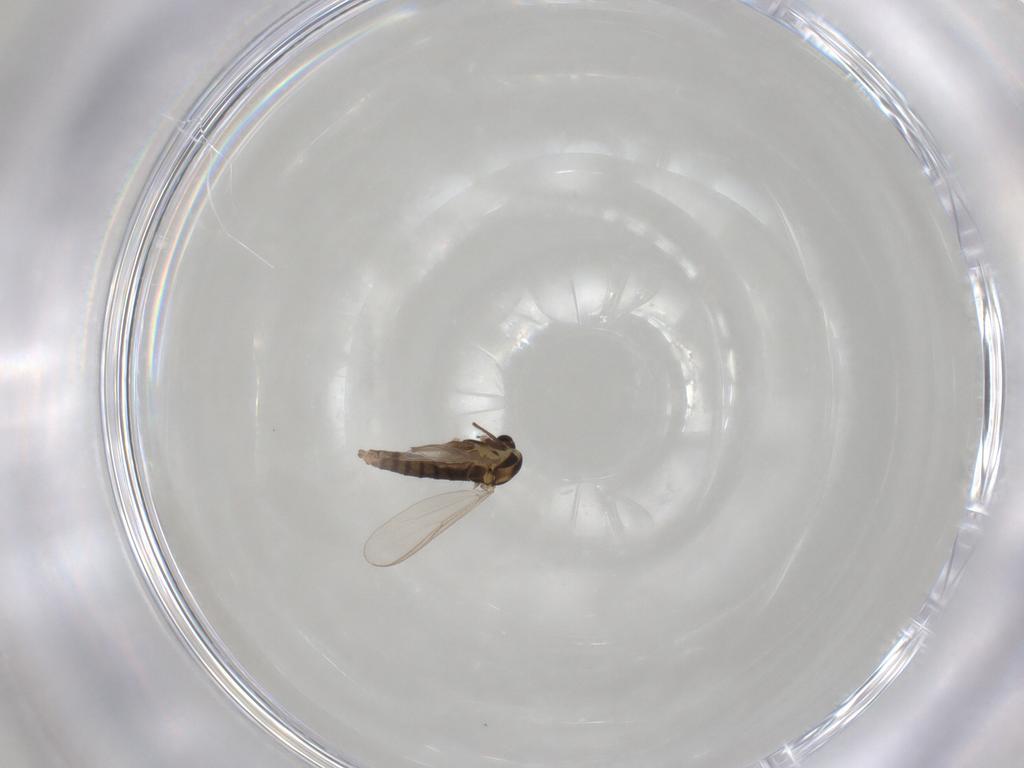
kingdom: Animalia
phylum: Arthropoda
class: Insecta
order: Diptera
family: Chironomidae
